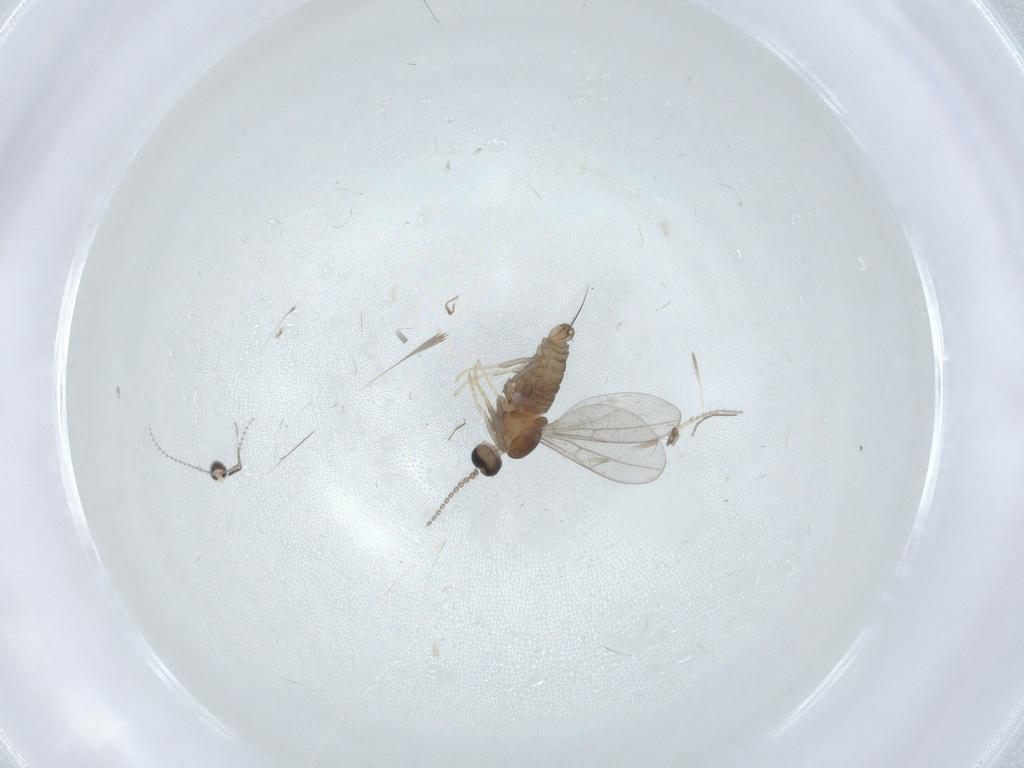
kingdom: Animalia
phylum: Arthropoda
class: Insecta
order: Diptera
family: Cecidomyiidae
